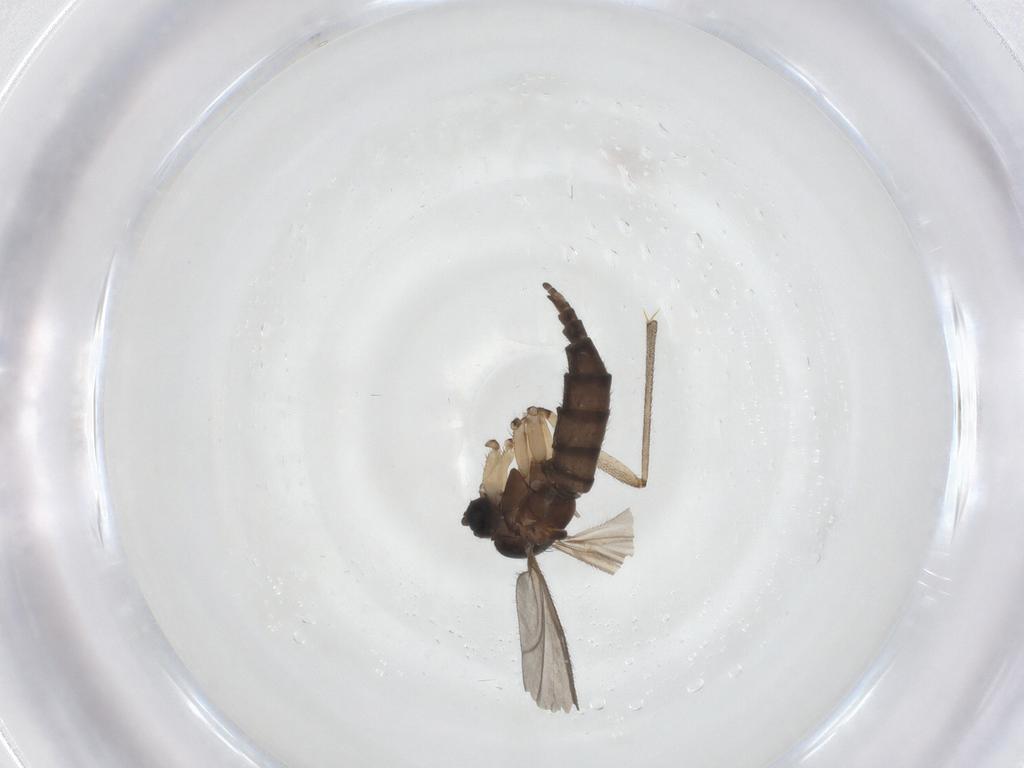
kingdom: Animalia
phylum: Arthropoda
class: Insecta
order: Diptera
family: Sciaridae
